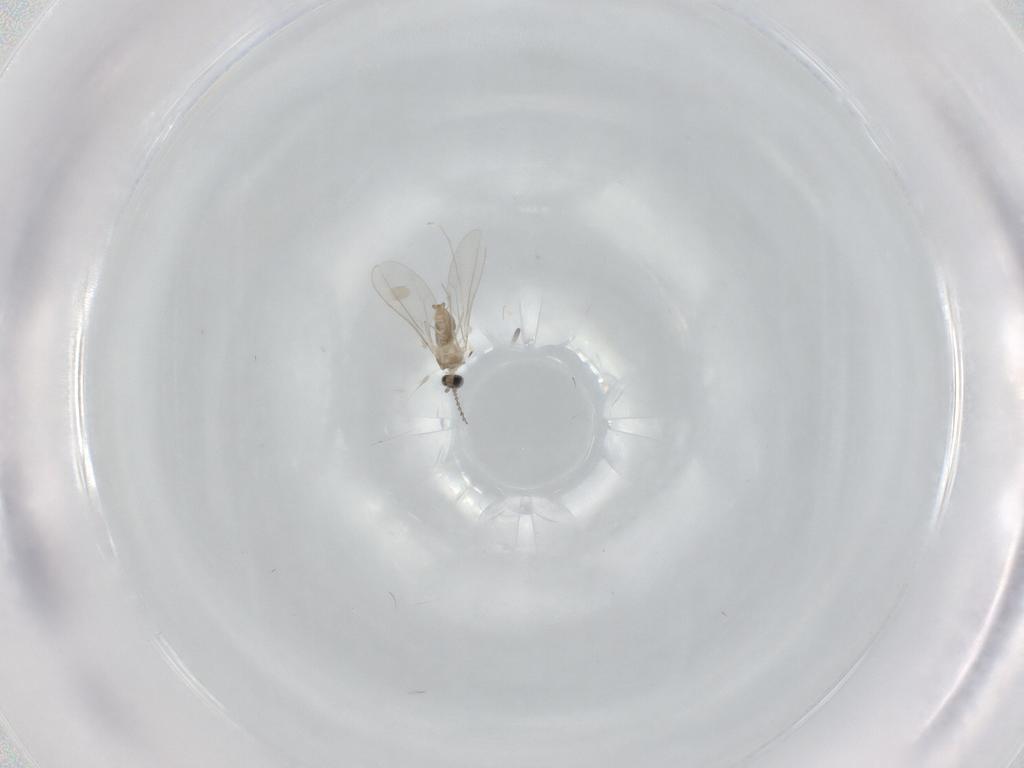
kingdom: Animalia
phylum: Arthropoda
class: Insecta
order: Diptera
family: Cecidomyiidae
